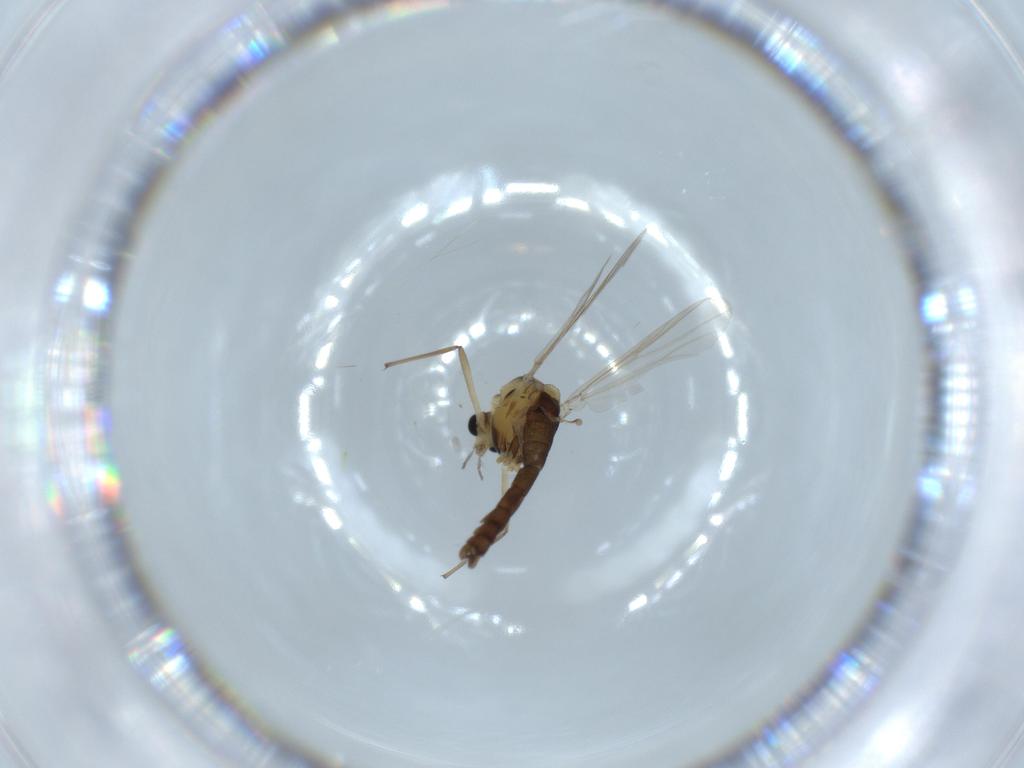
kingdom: Animalia
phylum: Arthropoda
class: Insecta
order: Diptera
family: Chironomidae
